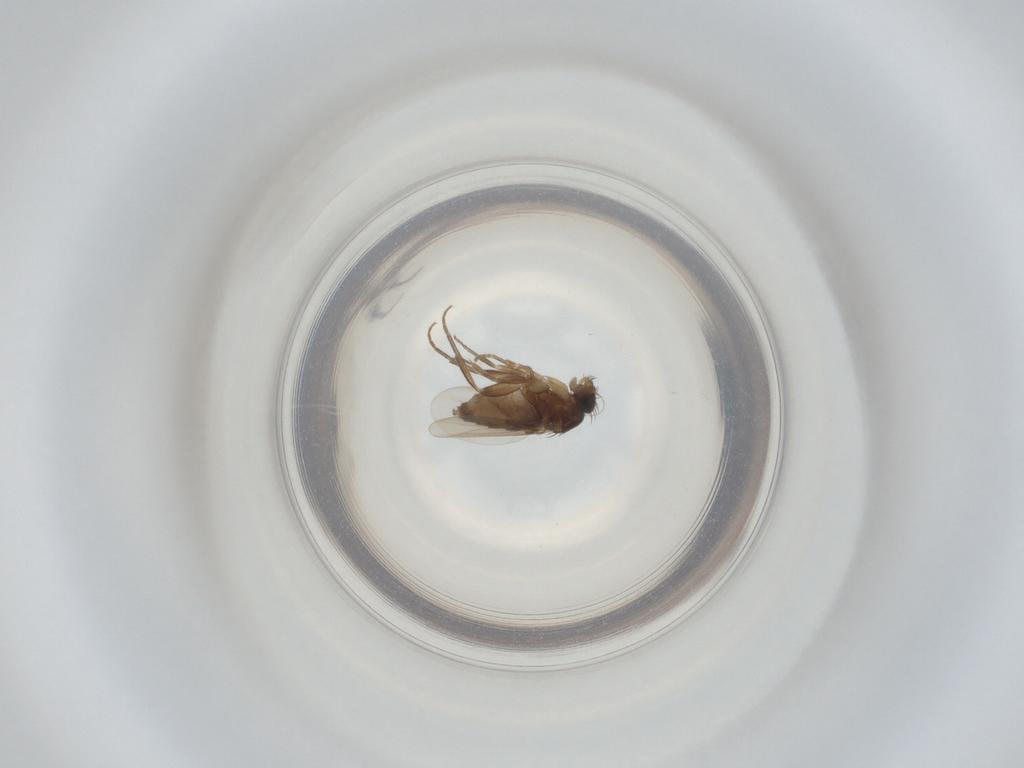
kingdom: Animalia
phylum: Arthropoda
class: Insecta
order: Diptera
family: Phoridae
